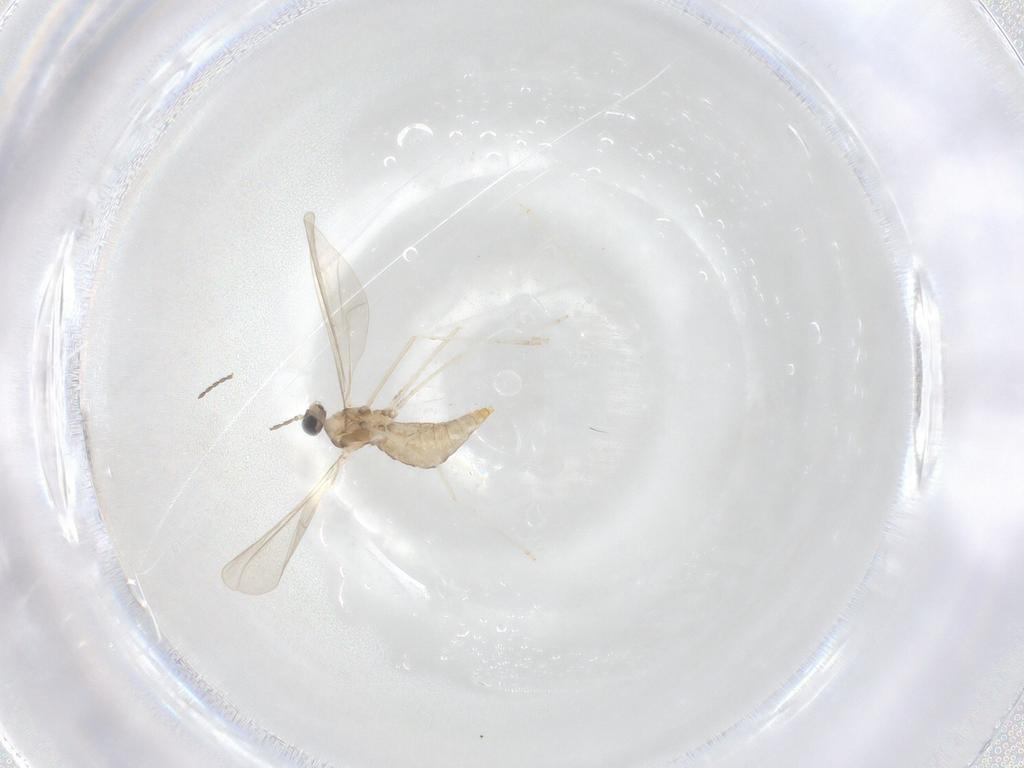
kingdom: Animalia
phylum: Arthropoda
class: Insecta
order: Diptera
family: Cecidomyiidae
